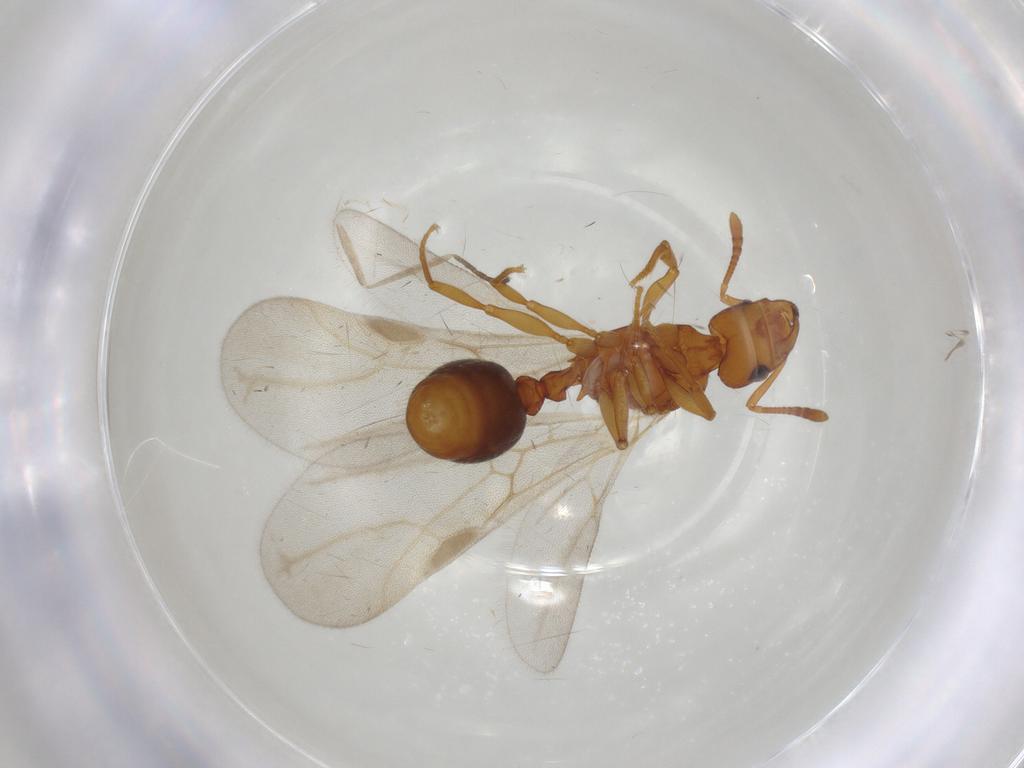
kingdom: Animalia
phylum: Arthropoda
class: Insecta
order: Hymenoptera
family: Formicidae
